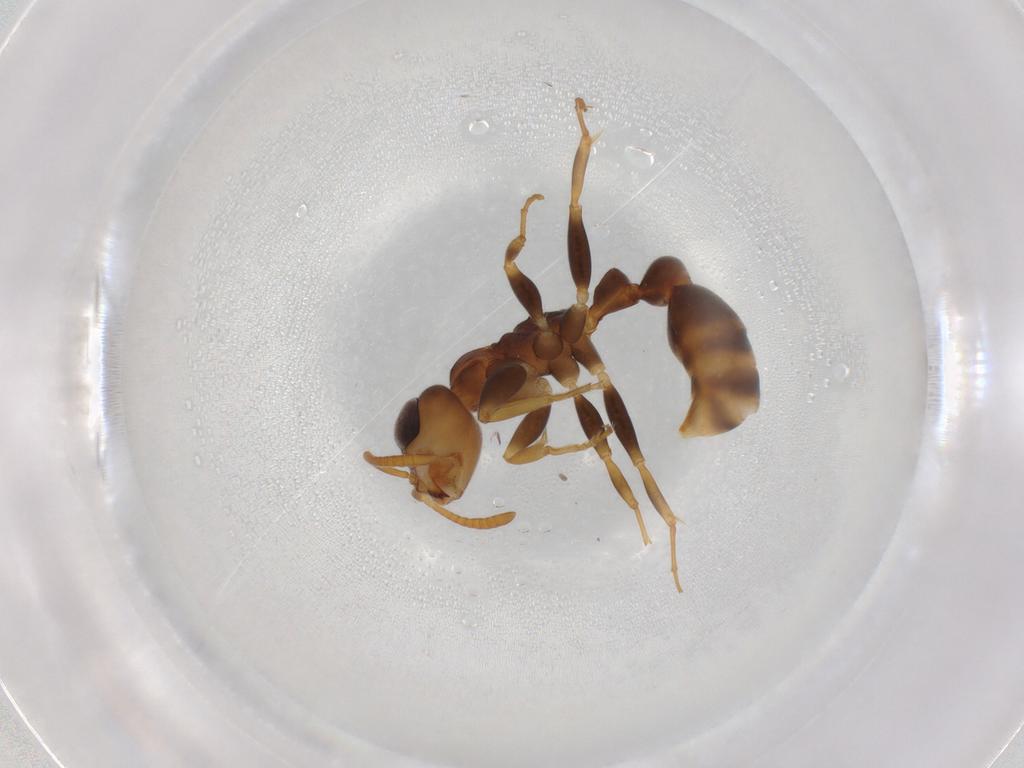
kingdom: Animalia
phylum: Arthropoda
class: Insecta
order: Hymenoptera
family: Formicidae
